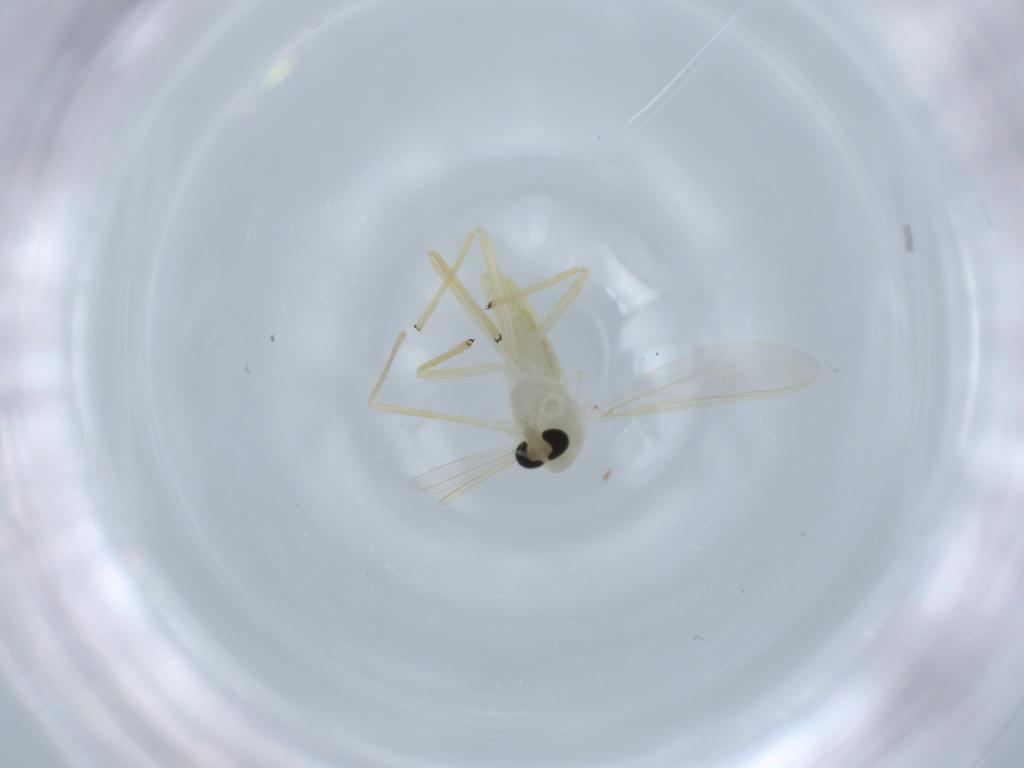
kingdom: Animalia
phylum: Arthropoda
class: Insecta
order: Diptera
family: Chironomidae
